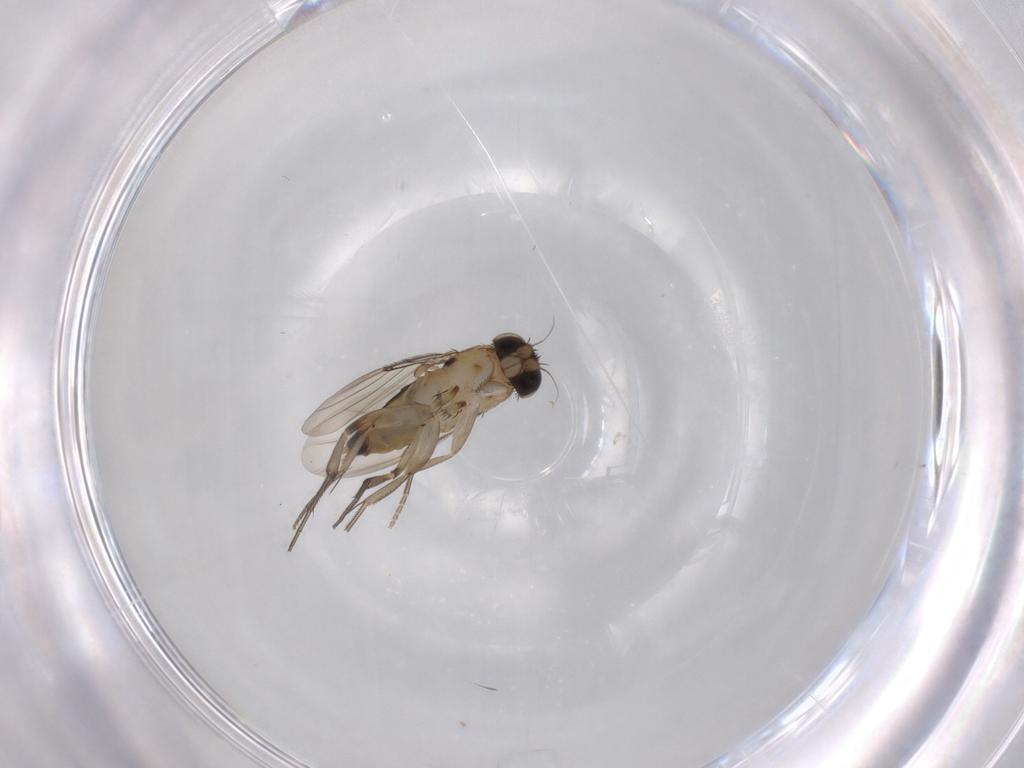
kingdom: Animalia
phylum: Arthropoda
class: Insecta
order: Diptera
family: Phoridae
